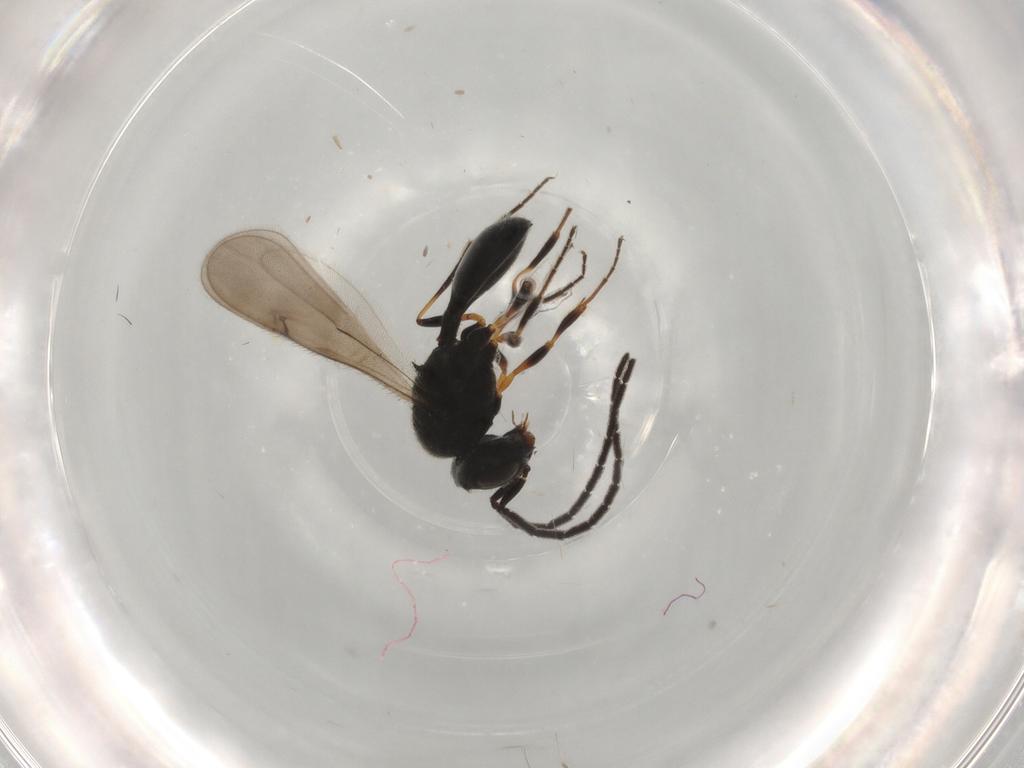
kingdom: Animalia
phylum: Arthropoda
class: Insecta
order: Hymenoptera
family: Scelionidae
